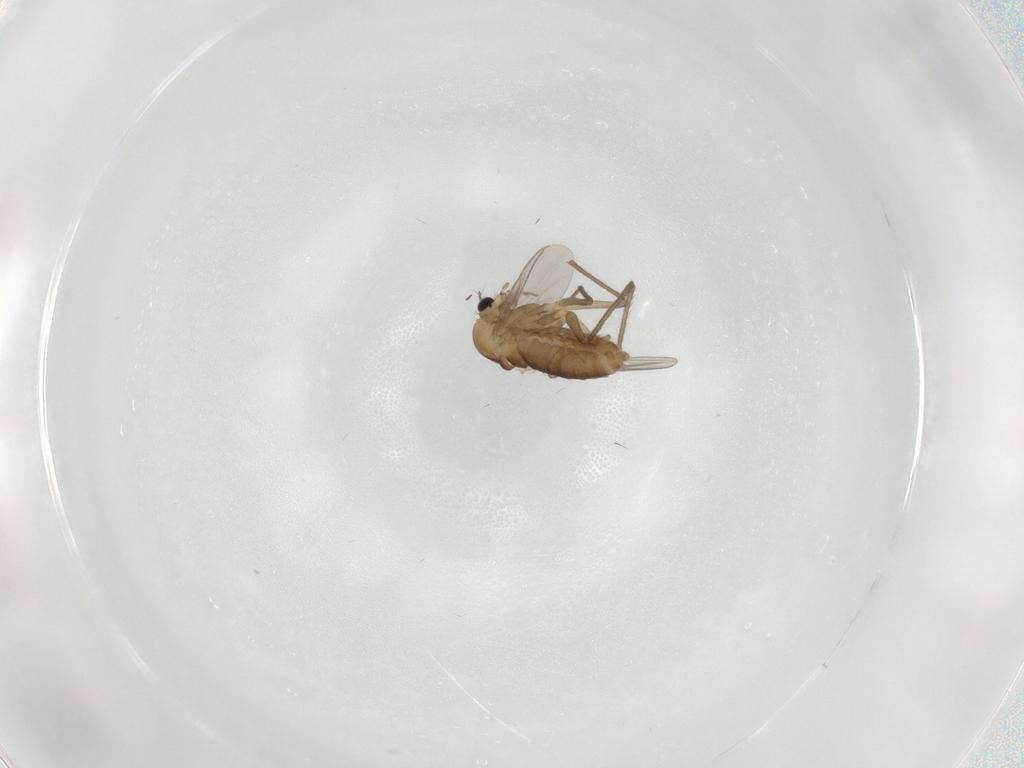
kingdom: Animalia
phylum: Arthropoda
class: Insecta
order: Diptera
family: Chironomidae
